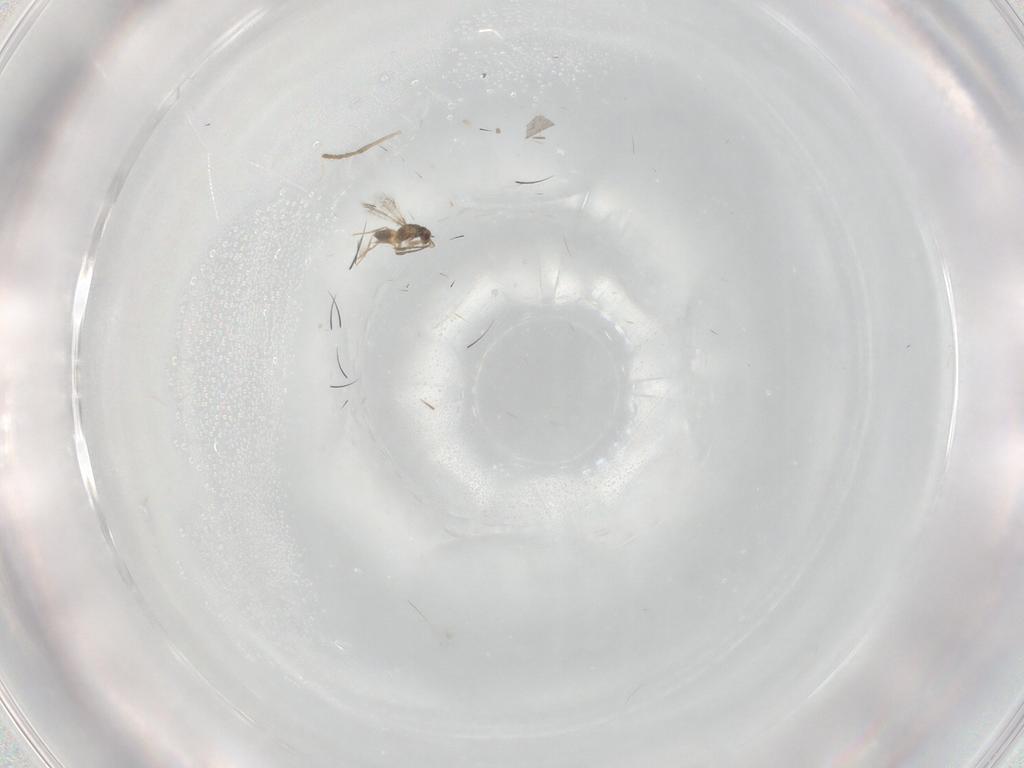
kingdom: Animalia
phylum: Arthropoda
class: Insecta
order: Hymenoptera
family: Mymaridae
